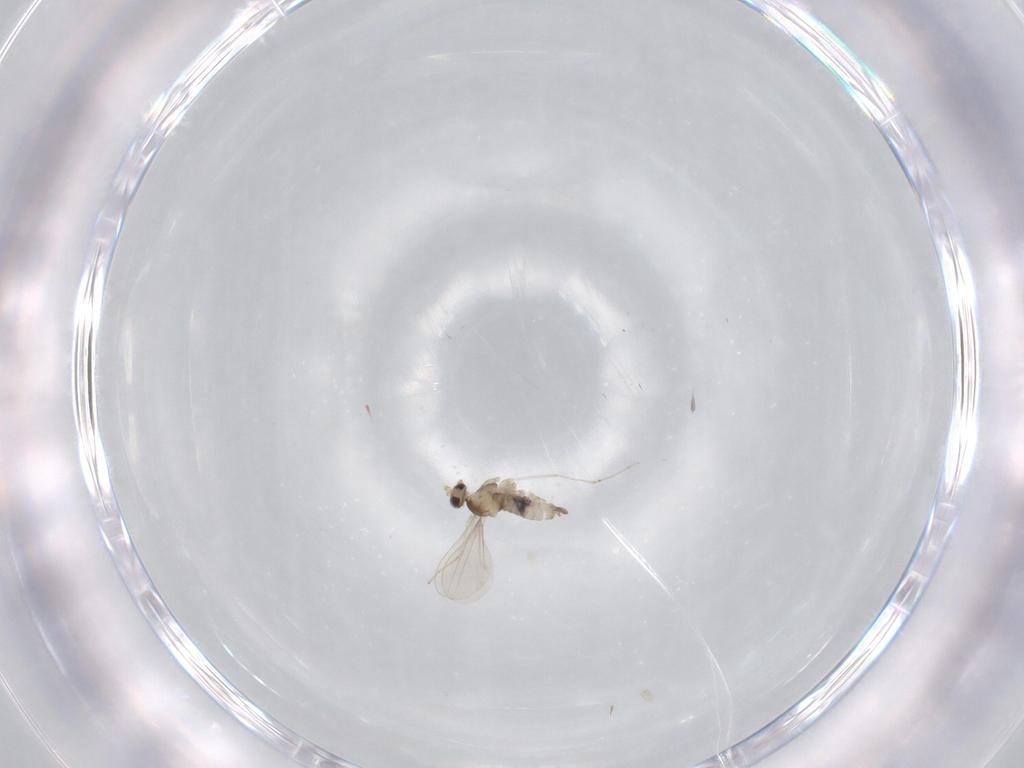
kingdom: Animalia
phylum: Arthropoda
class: Insecta
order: Diptera
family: Cecidomyiidae
